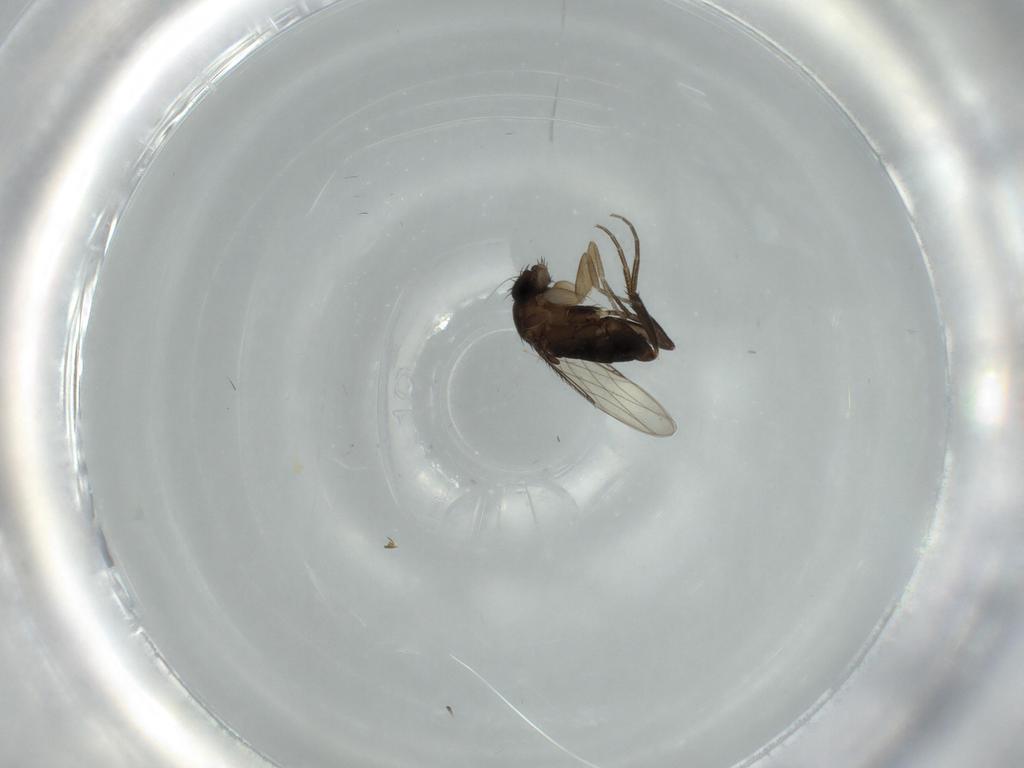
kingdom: Animalia
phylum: Arthropoda
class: Insecta
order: Diptera
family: Phoridae
